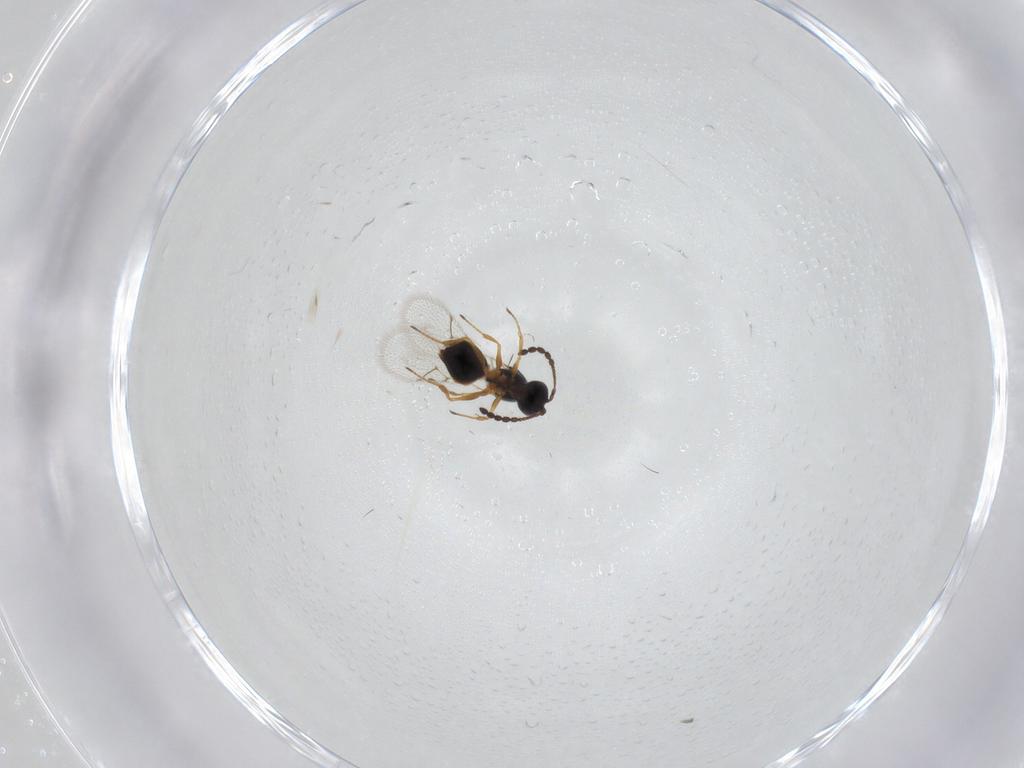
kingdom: Animalia
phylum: Arthropoda
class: Insecta
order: Hymenoptera
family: Figitidae
